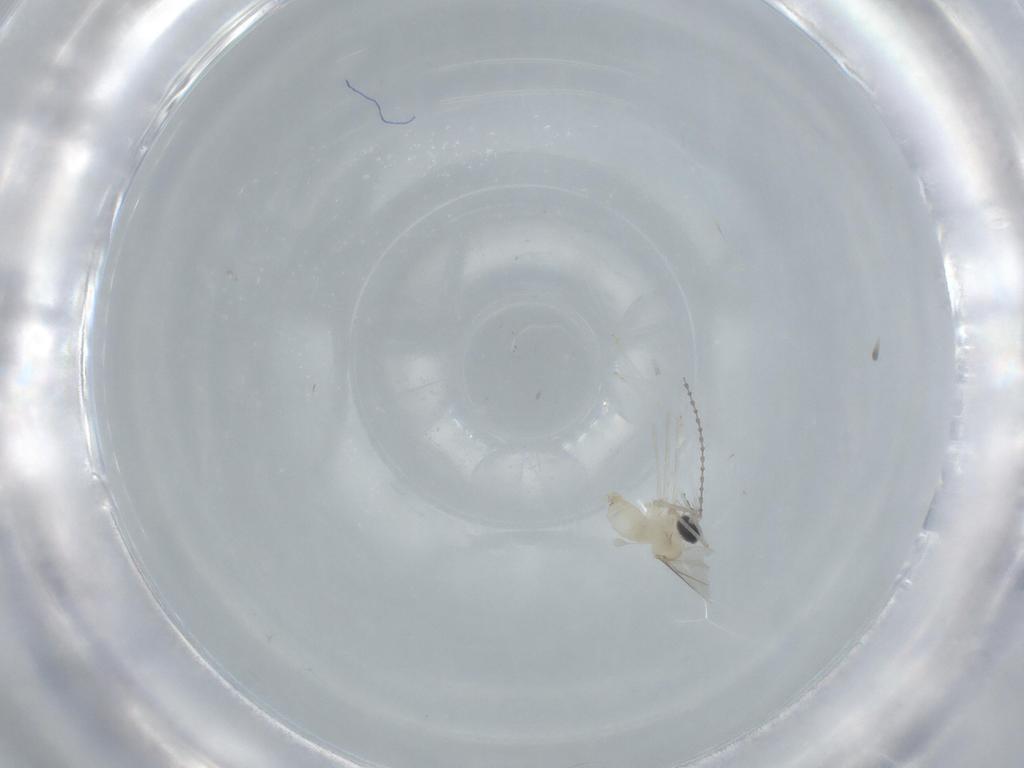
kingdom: Animalia
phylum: Arthropoda
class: Insecta
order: Diptera
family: Cecidomyiidae
